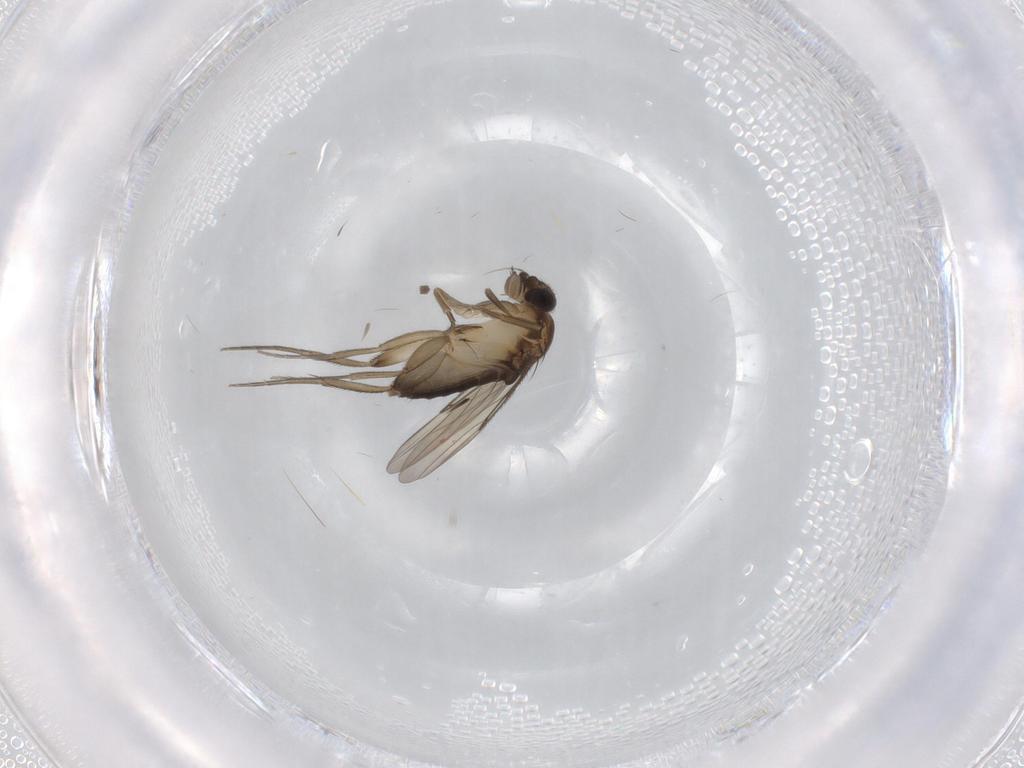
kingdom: Animalia
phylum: Arthropoda
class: Insecta
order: Diptera
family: Phoridae
